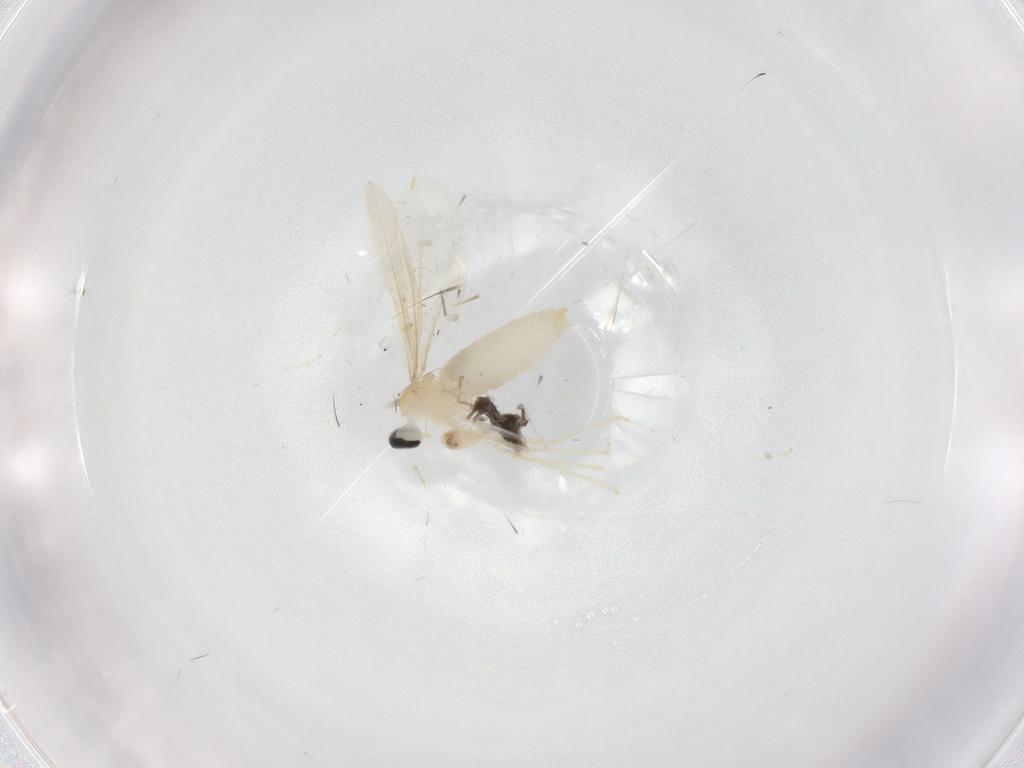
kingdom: Animalia
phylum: Arthropoda
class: Insecta
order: Diptera
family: Cecidomyiidae
